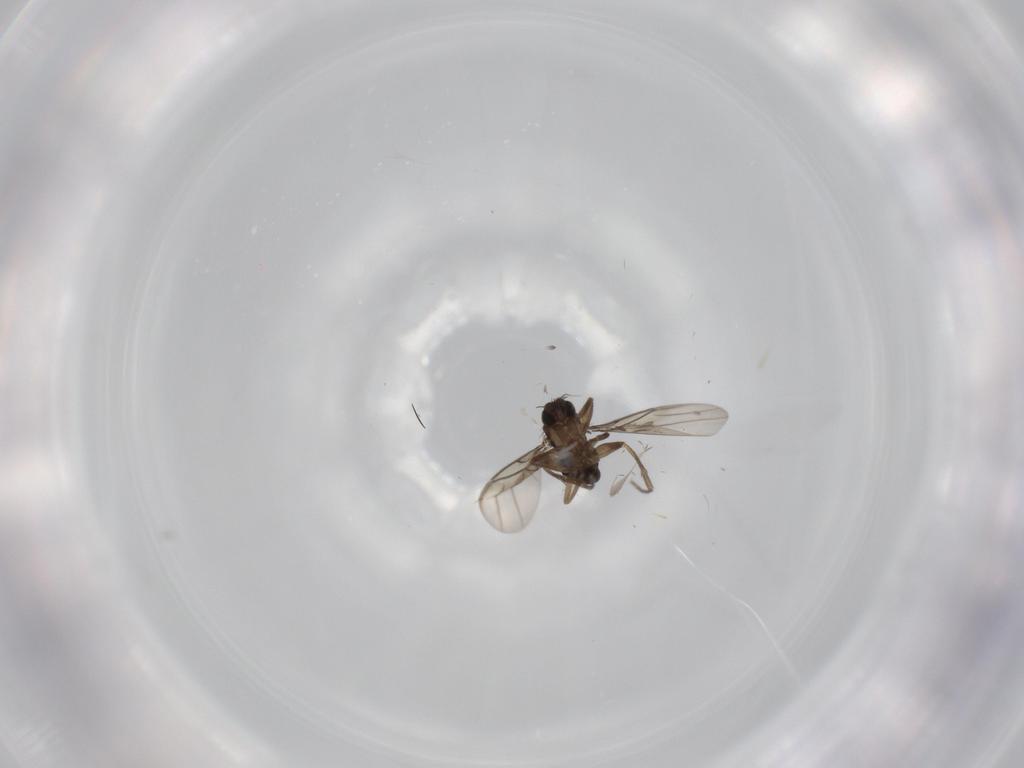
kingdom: Animalia
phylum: Arthropoda
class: Insecta
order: Diptera
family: Phoridae
